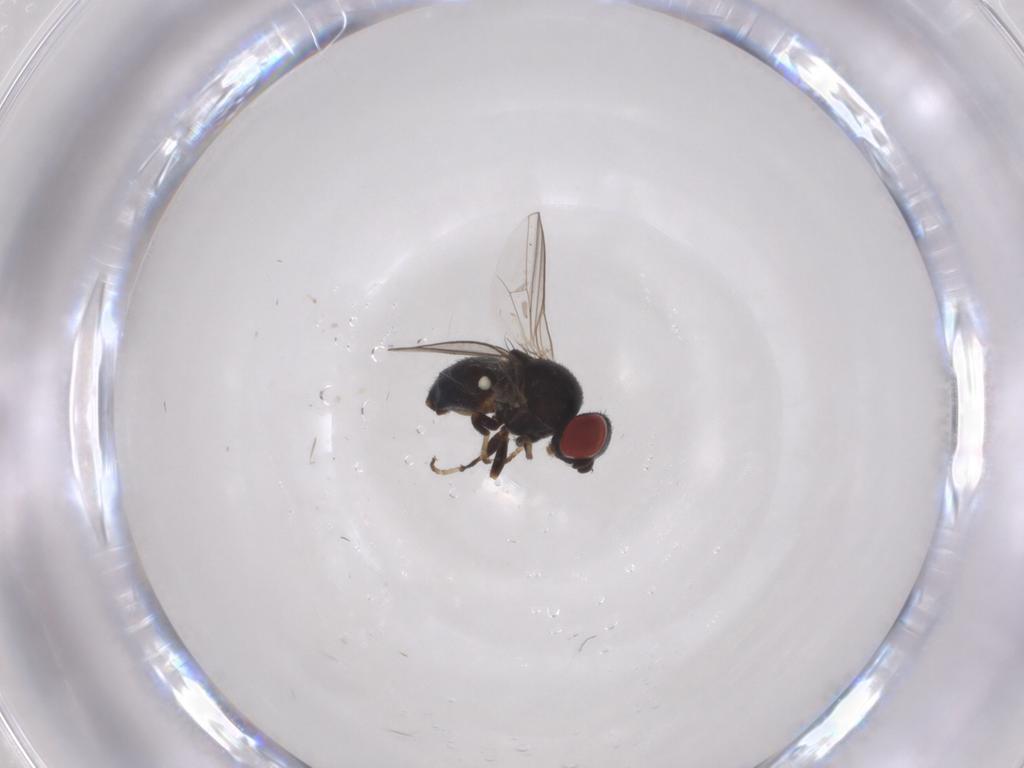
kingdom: Animalia
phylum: Arthropoda
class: Insecta
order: Diptera
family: Chamaemyiidae
